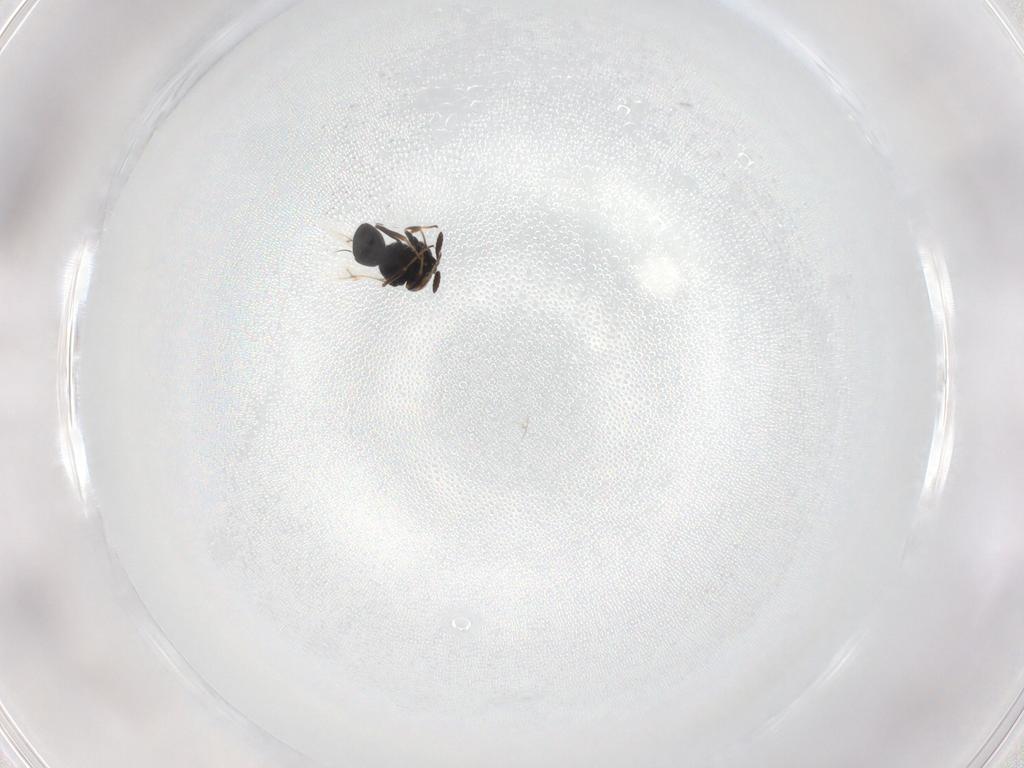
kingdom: Animalia
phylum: Arthropoda
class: Insecta
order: Hymenoptera
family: Scelionidae
